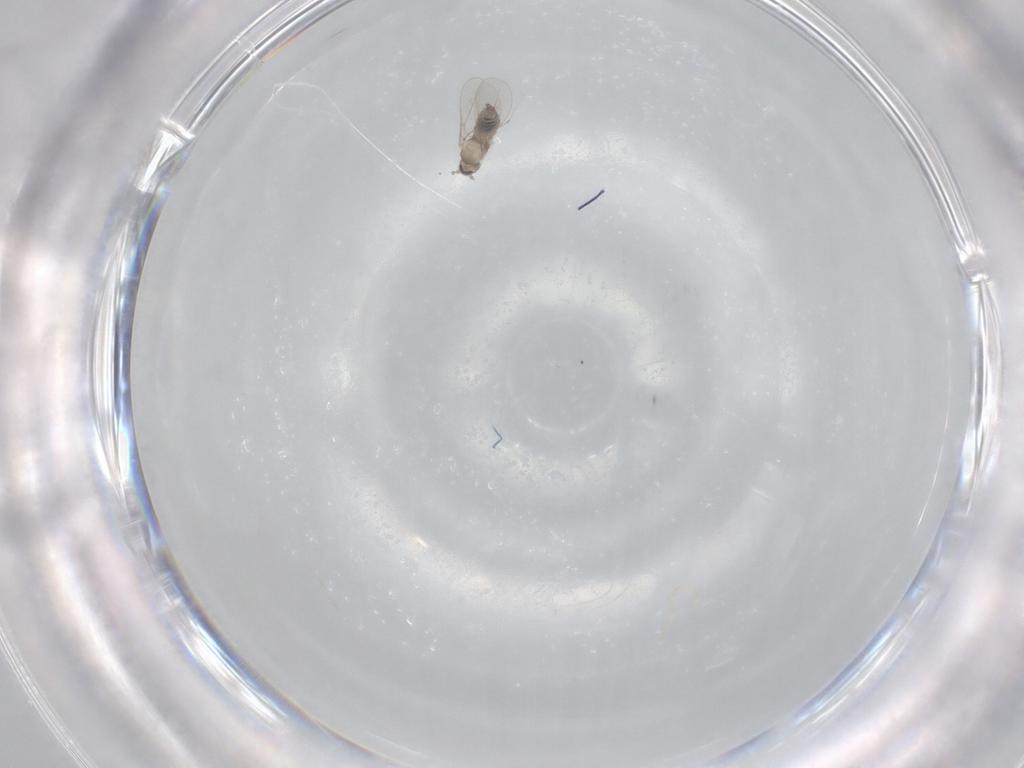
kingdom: Animalia
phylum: Arthropoda
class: Insecta
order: Diptera
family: Cecidomyiidae
